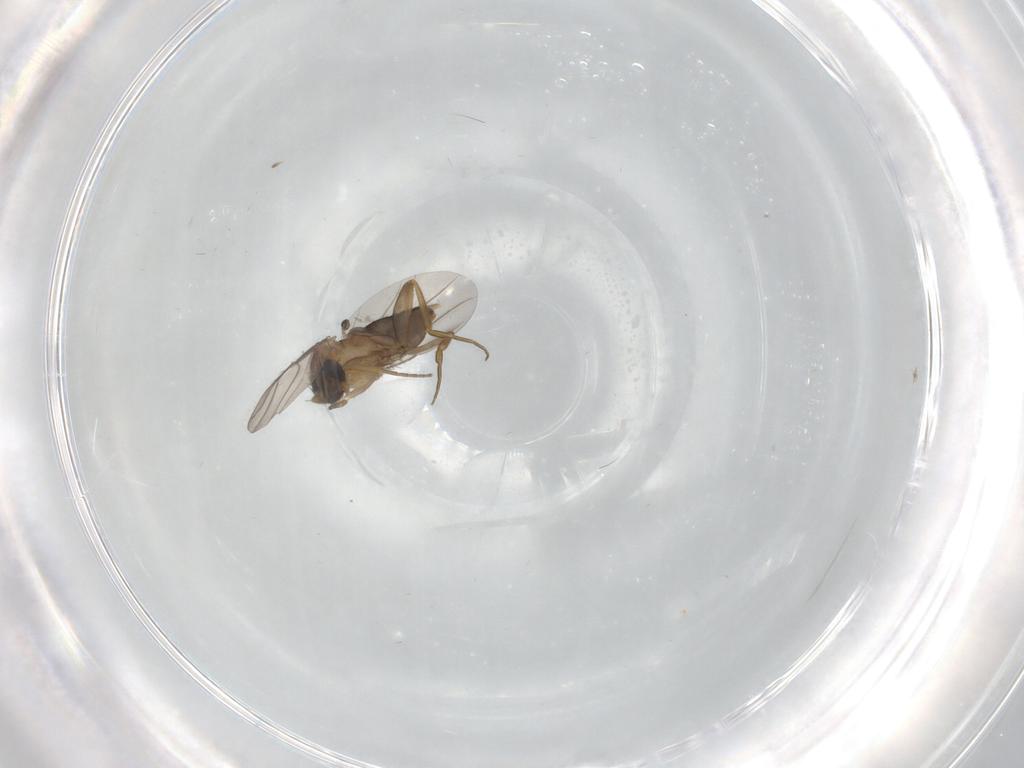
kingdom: Animalia
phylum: Arthropoda
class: Insecta
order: Diptera
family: Phoridae
